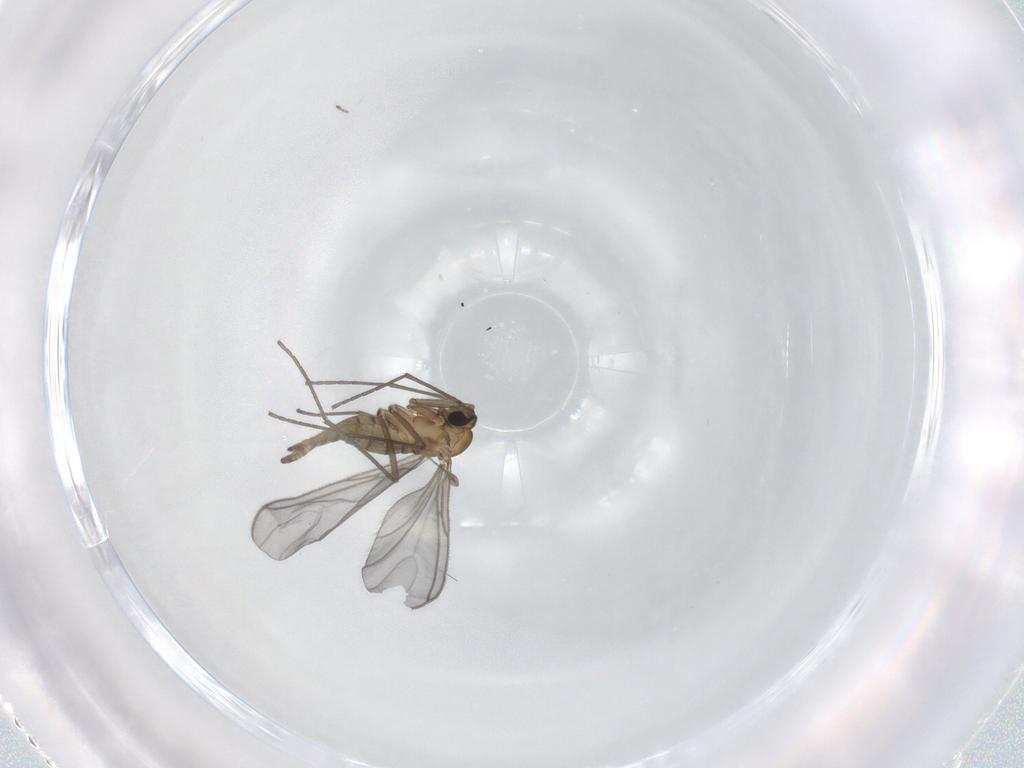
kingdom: Animalia
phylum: Arthropoda
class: Insecta
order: Diptera
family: Sciaridae
